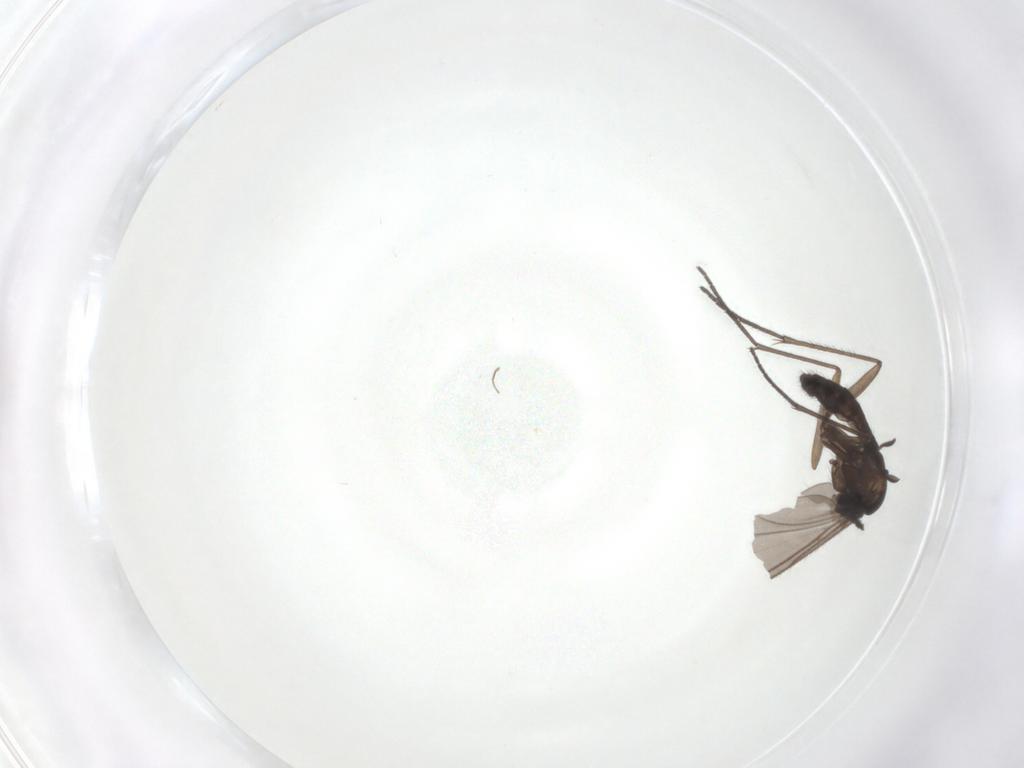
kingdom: Animalia
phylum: Arthropoda
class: Insecta
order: Diptera
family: Sciaridae
